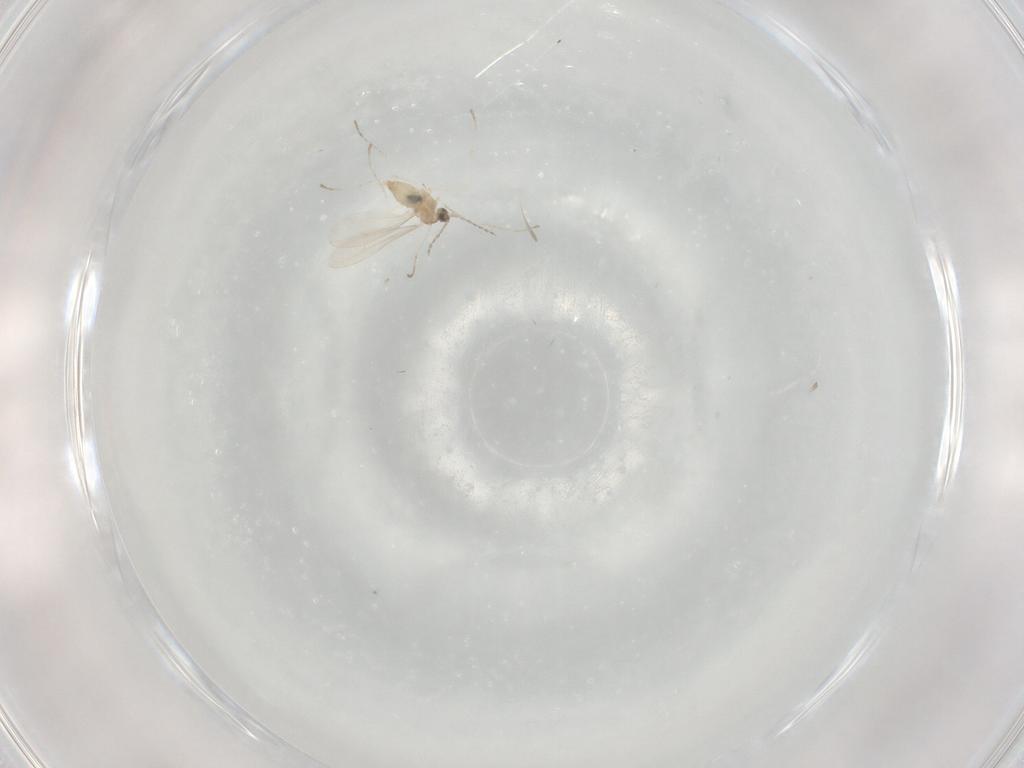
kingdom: Animalia
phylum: Arthropoda
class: Insecta
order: Diptera
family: Cecidomyiidae
